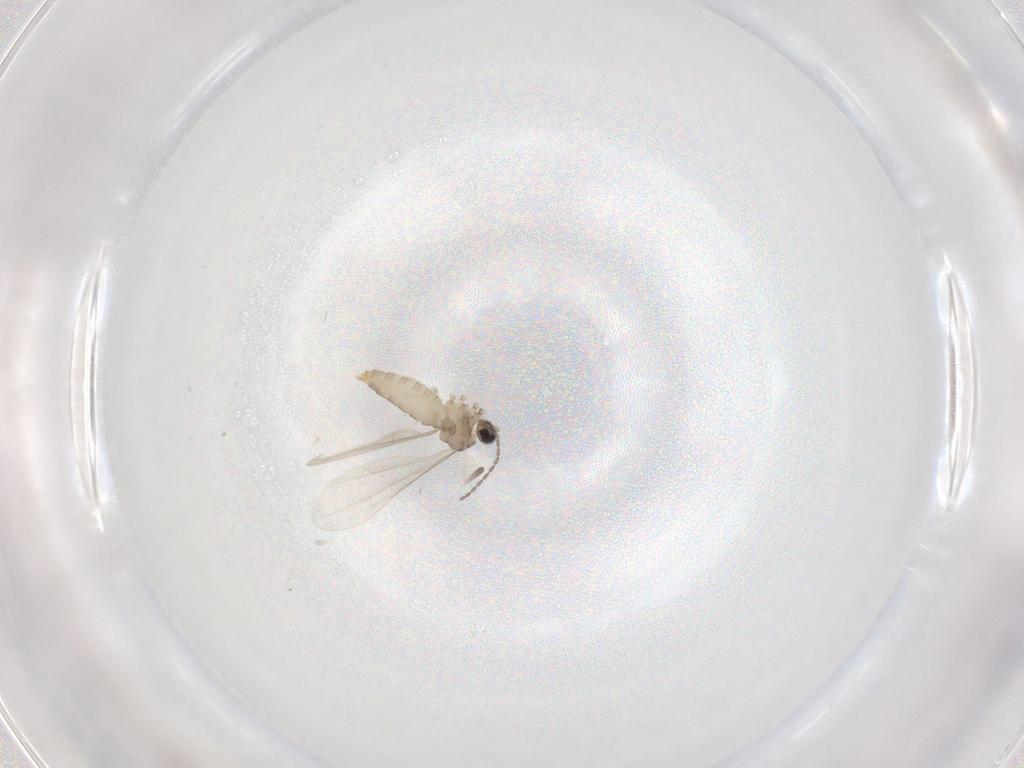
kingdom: Animalia
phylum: Arthropoda
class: Insecta
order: Diptera
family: Cecidomyiidae
